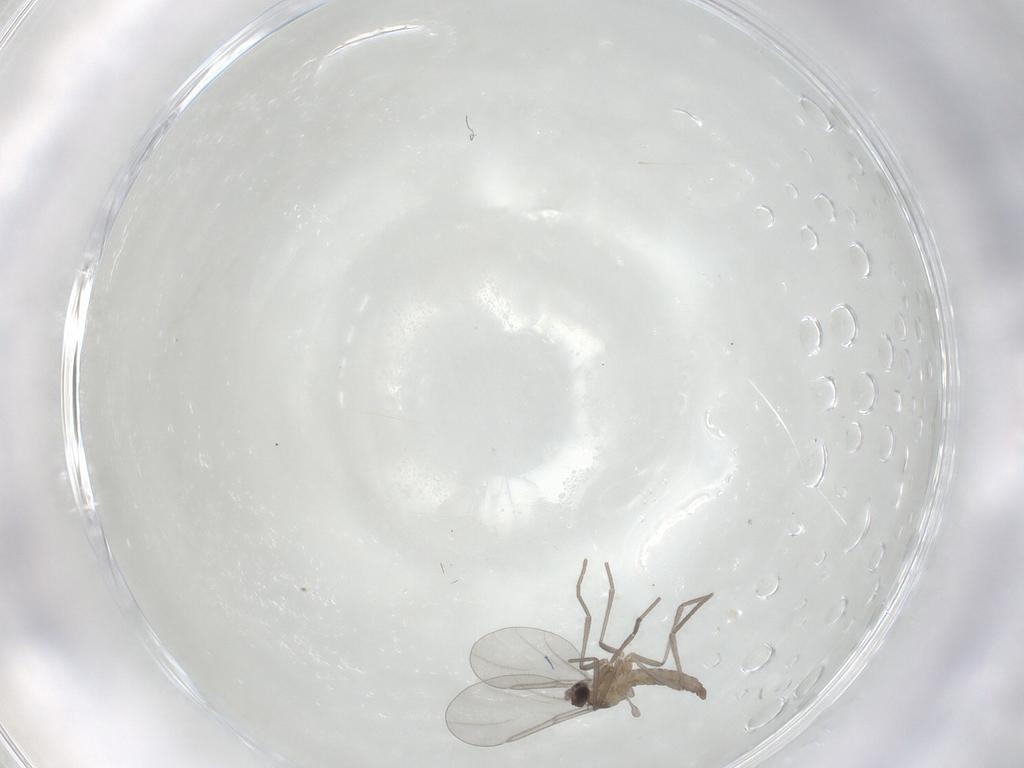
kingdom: Animalia
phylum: Arthropoda
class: Insecta
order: Diptera
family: Cecidomyiidae
